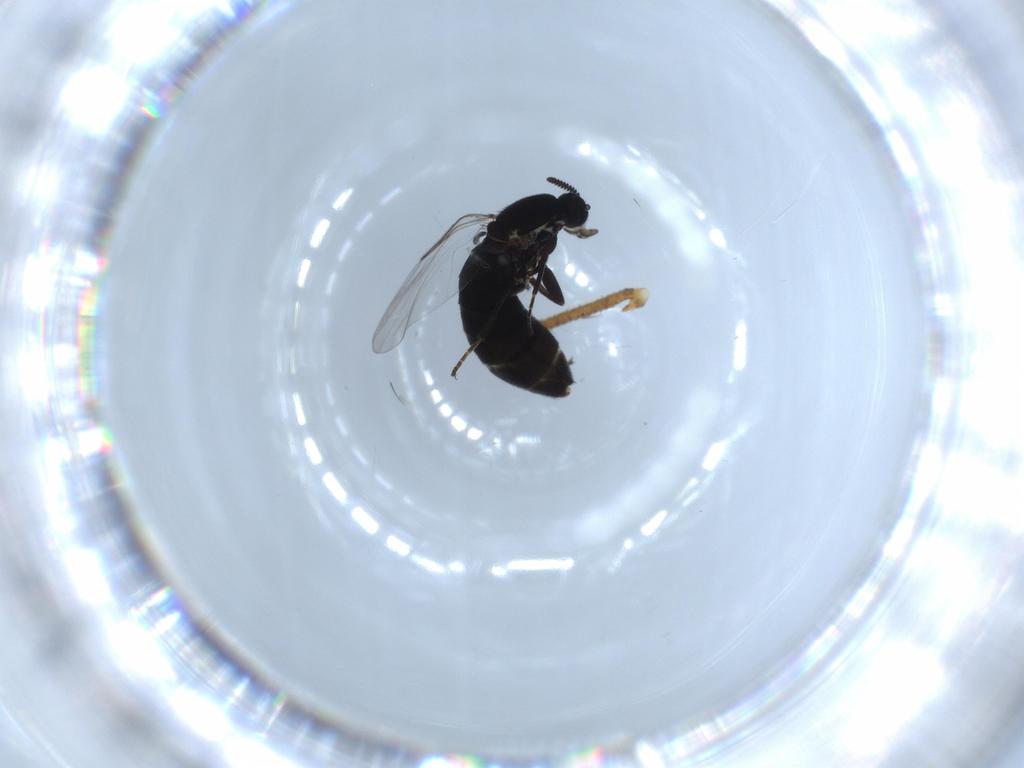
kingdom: Animalia
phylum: Arthropoda
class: Insecta
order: Diptera
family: Scatopsidae
